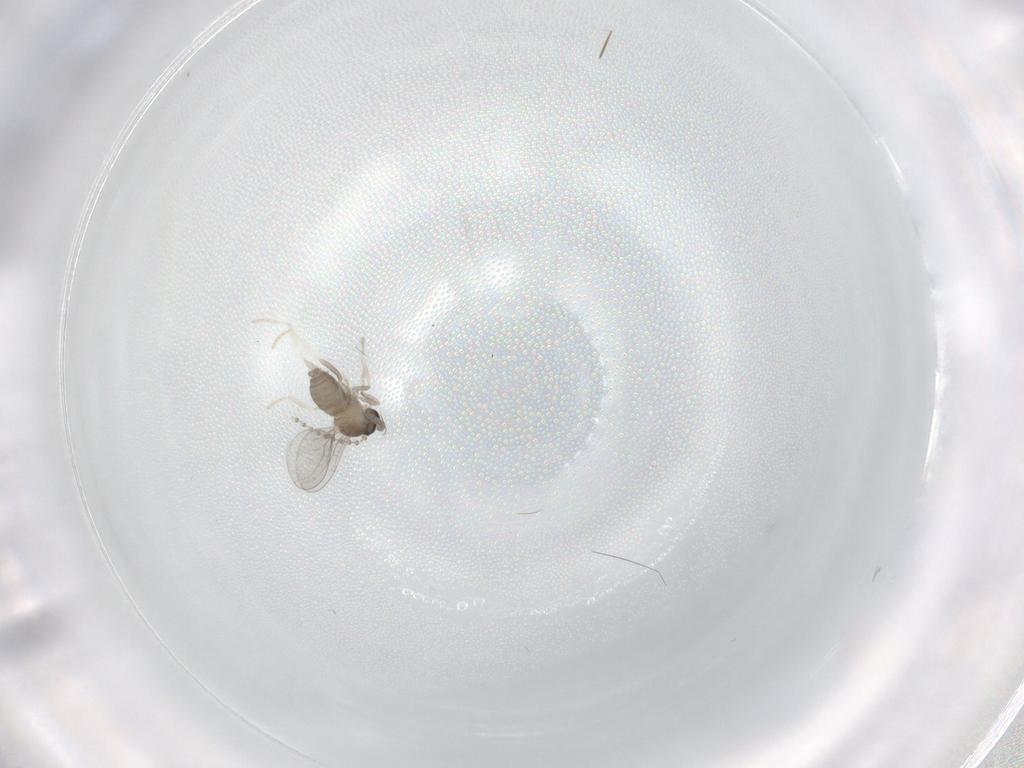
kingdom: Animalia
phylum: Arthropoda
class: Insecta
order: Diptera
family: Cecidomyiidae
